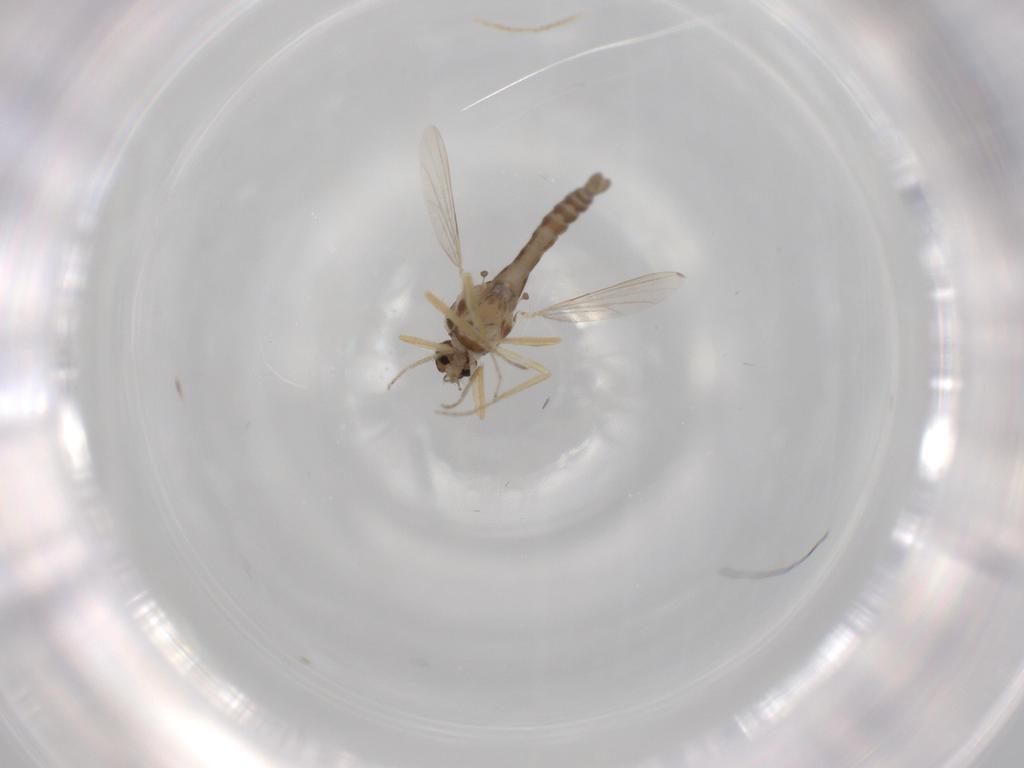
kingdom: Animalia
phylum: Arthropoda
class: Insecta
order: Diptera
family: Ceratopogonidae
